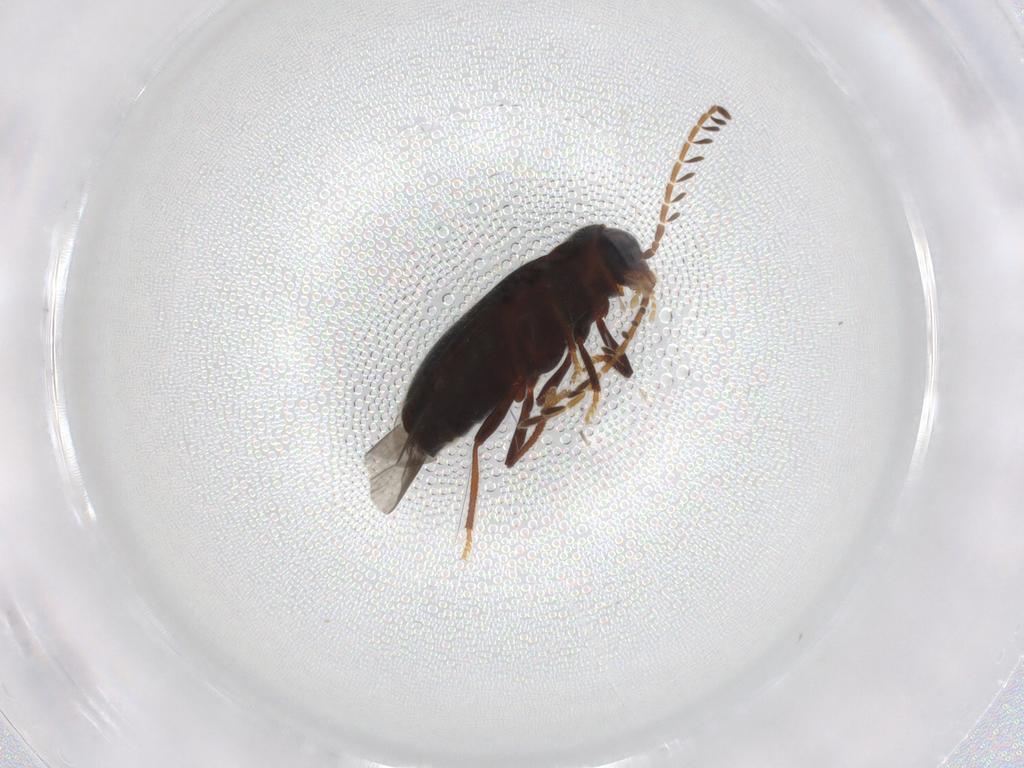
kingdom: Animalia
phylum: Arthropoda
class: Insecta
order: Coleoptera
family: Ptilodactylidae
